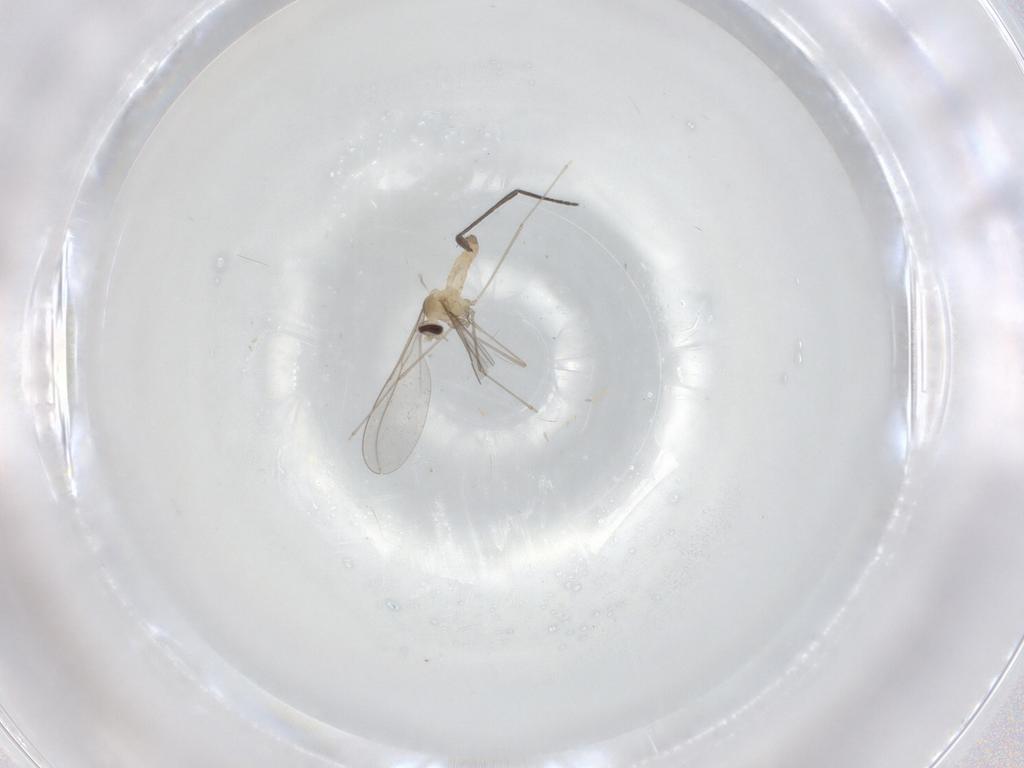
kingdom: Animalia
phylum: Arthropoda
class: Insecta
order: Diptera
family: Cecidomyiidae
